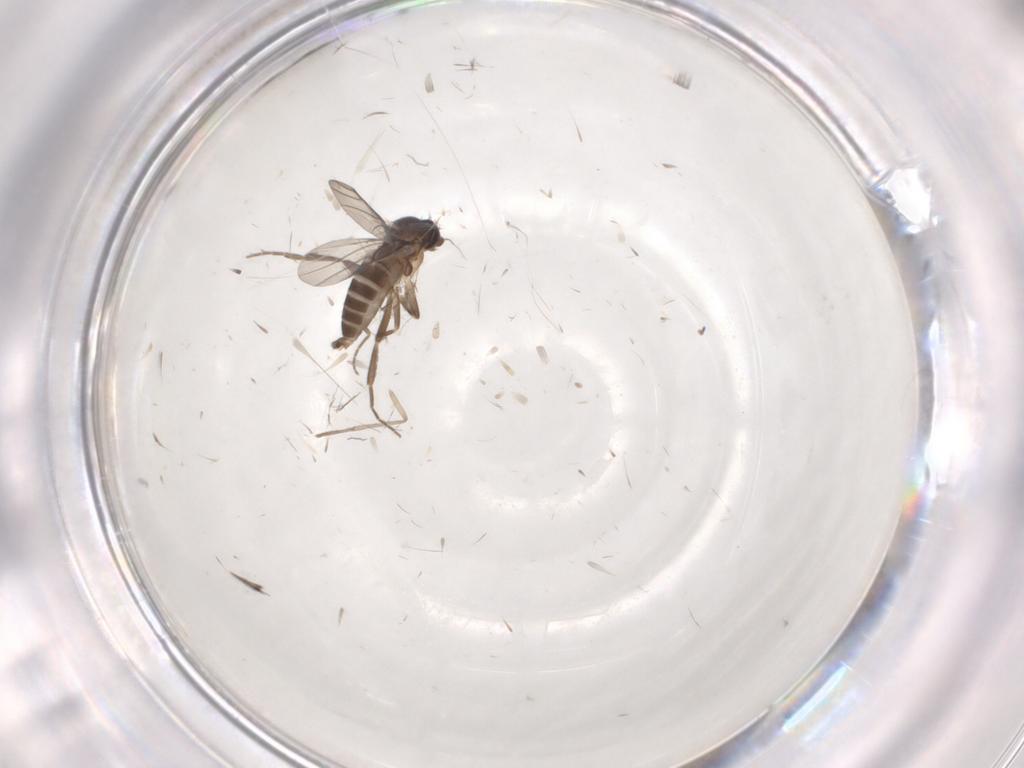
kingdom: Animalia
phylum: Arthropoda
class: Insecta
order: Diptera
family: Phoridae
